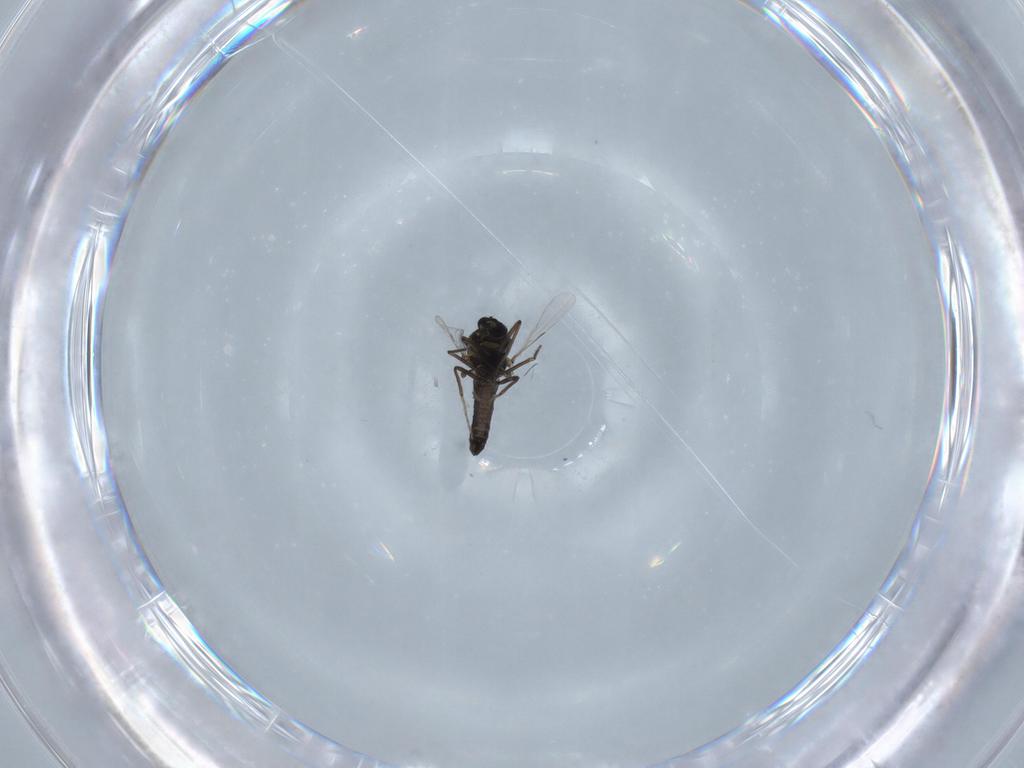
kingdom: Animalia
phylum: Arthropoda
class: Insecta
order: Diptera
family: Ceratopogonidae
